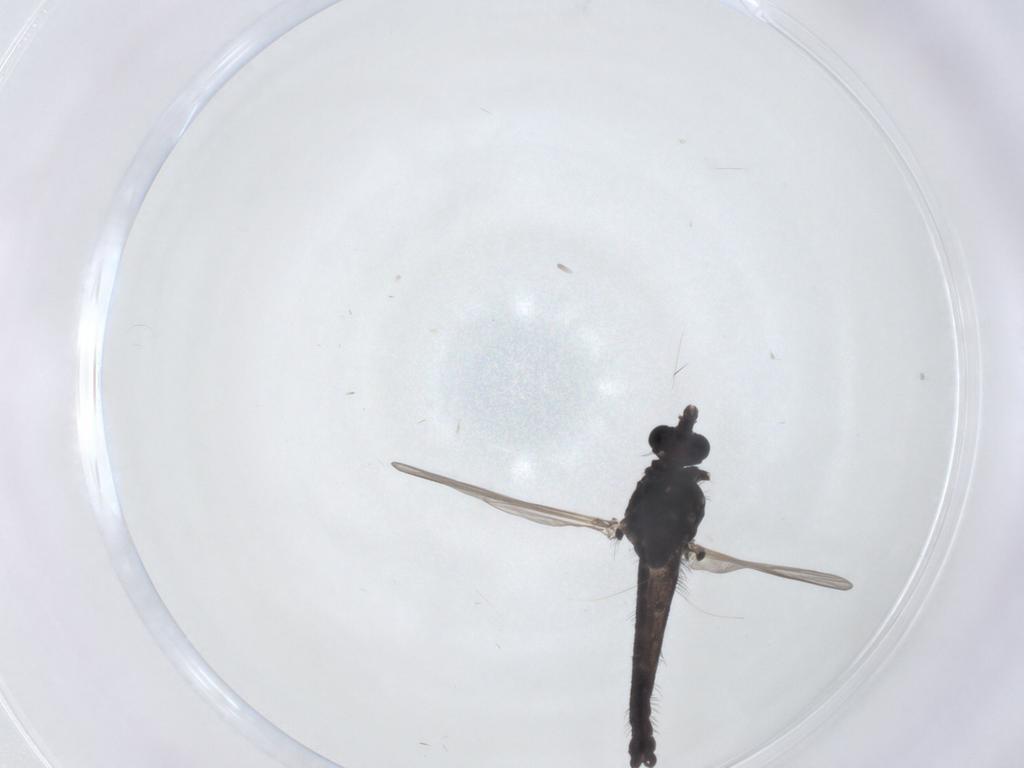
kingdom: Animalia
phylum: Arthropoda
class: Insecta
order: Diptera
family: Chironomidae
